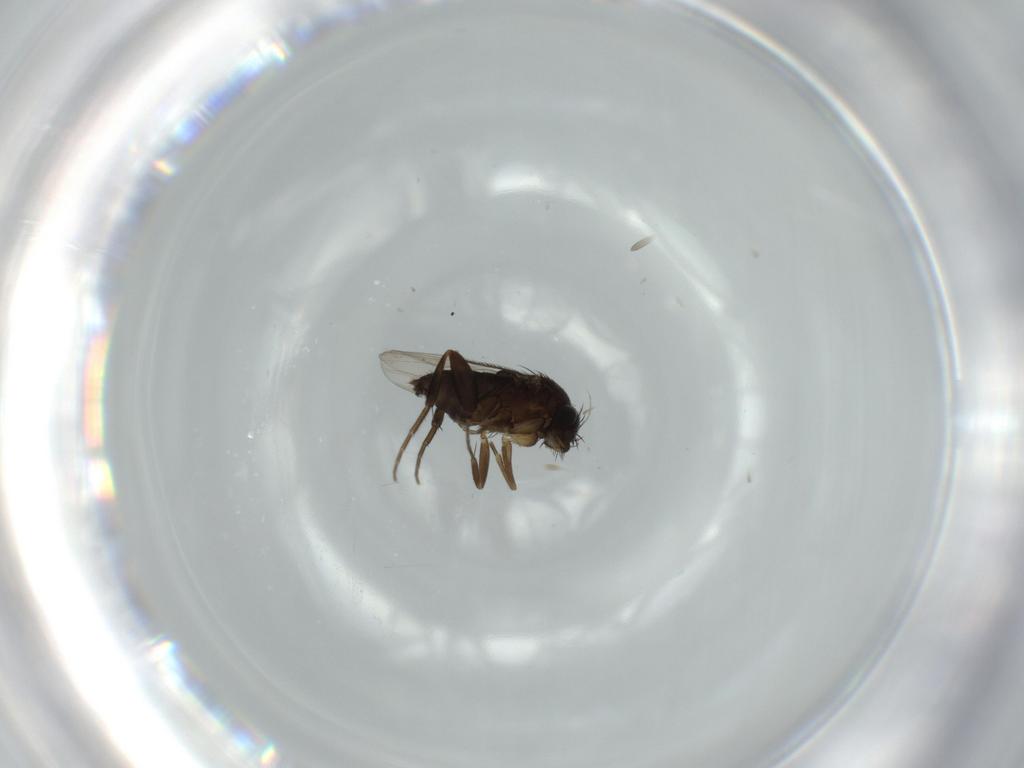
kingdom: Animalia
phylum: Arthropoda
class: Insecta
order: Diptera
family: Phoridae
